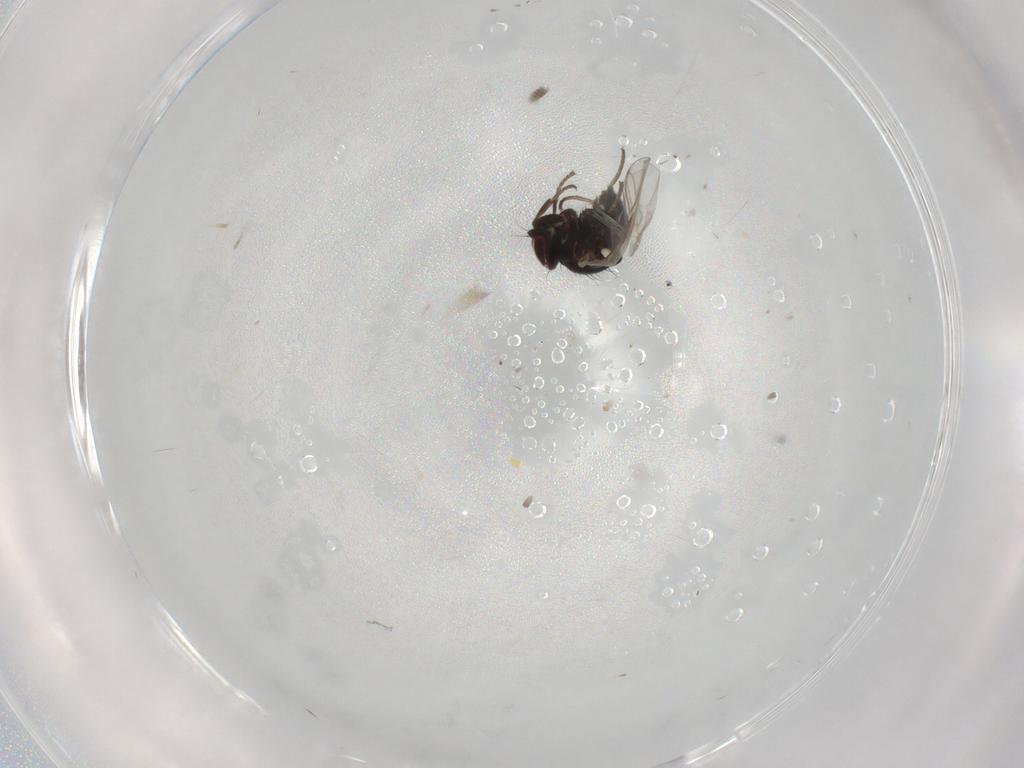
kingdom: Animalia
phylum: Arthropoda
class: Insecta
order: Diptera
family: Agromyzidae
